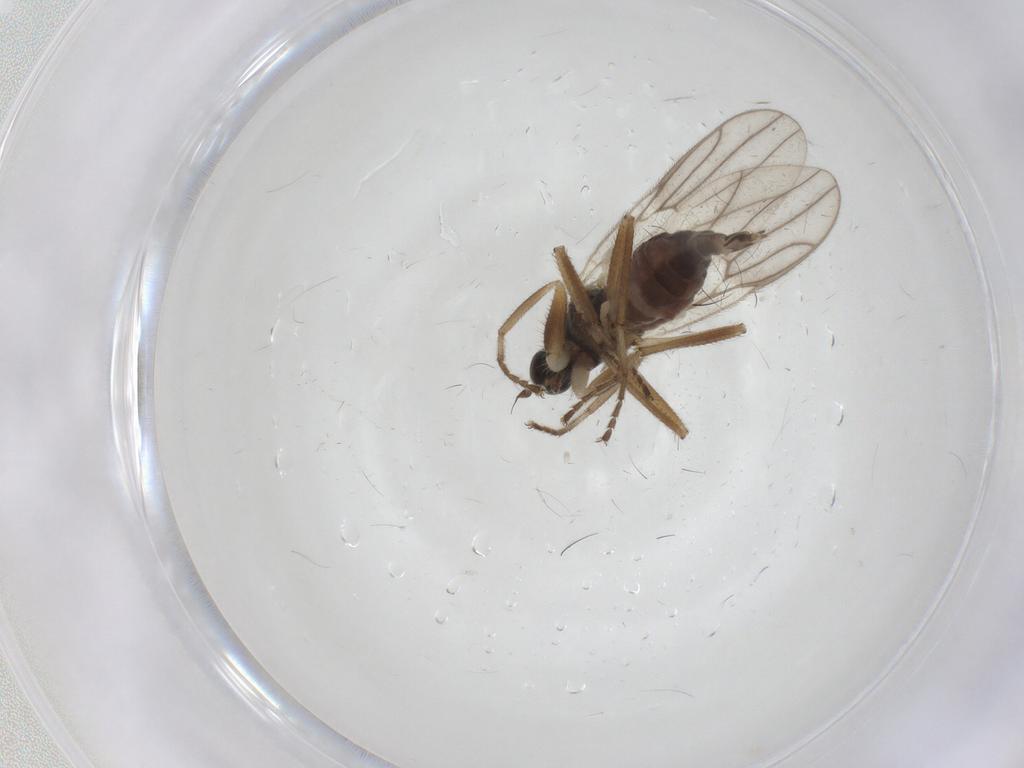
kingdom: Animalia
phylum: Arthropoda
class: Insecta
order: Diptera
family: Hybotidae
